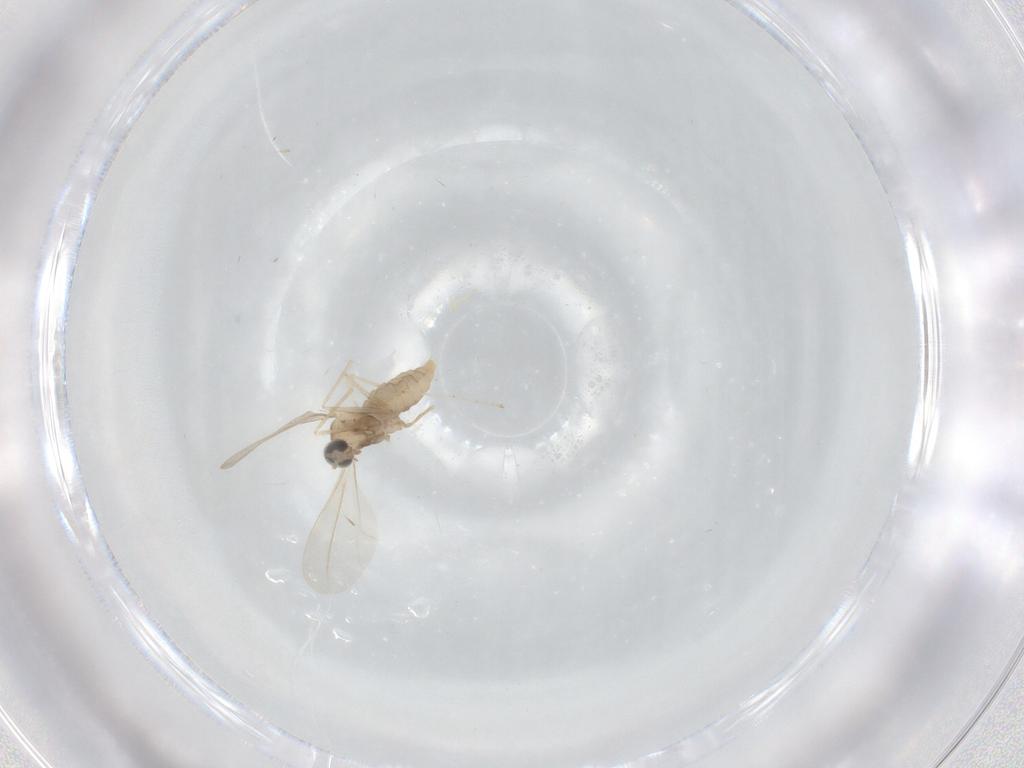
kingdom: Animalia
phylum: Arthropoda
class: Insecta
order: Diptera
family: Cecidomyiidae
